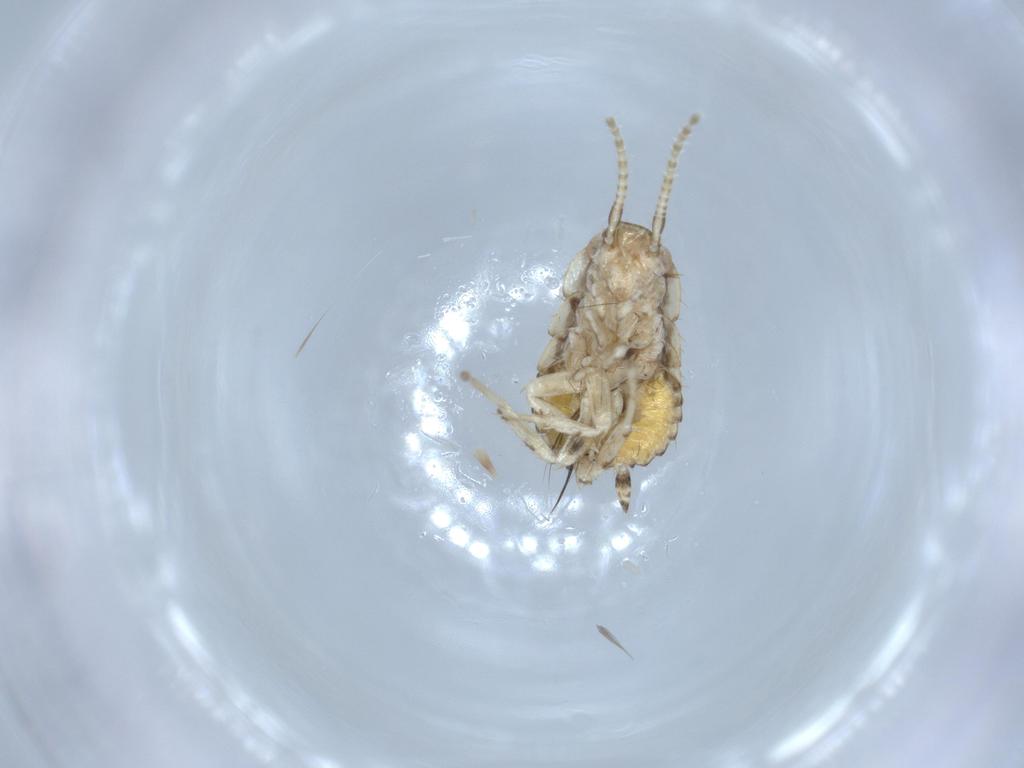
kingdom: Animalia
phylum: Arthropoda
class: Insecta
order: Blattodea
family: Ectobiidae
